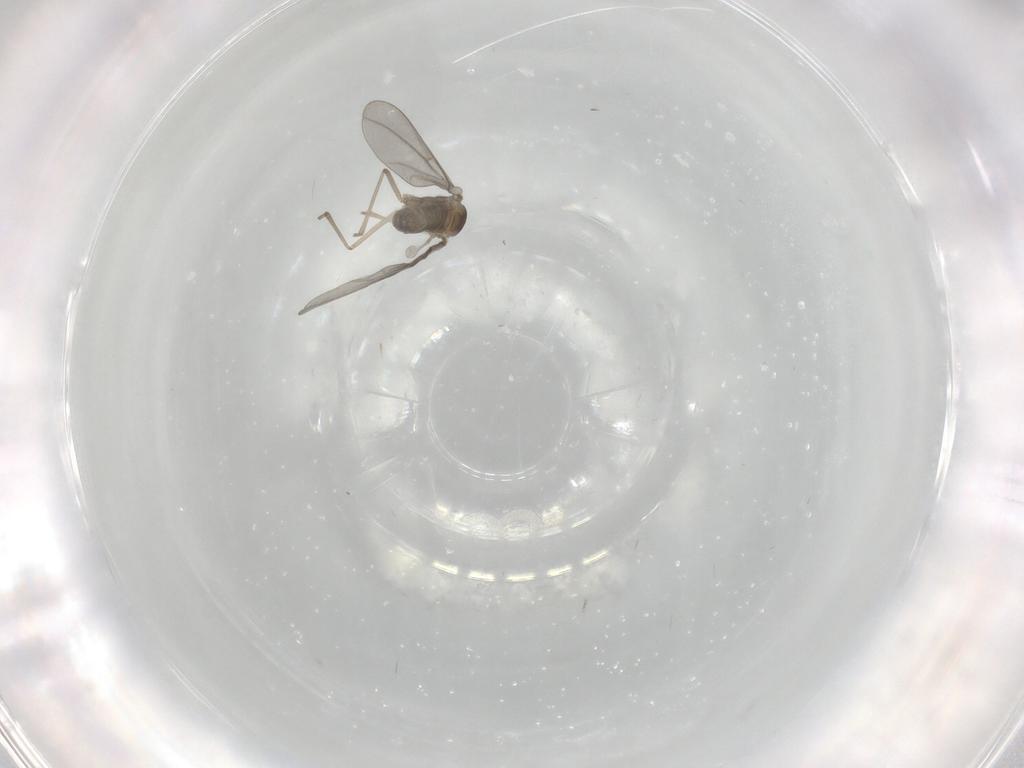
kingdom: Animalia
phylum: Arthropoda
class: Insecta
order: Diptera
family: Cecidomyiidae
